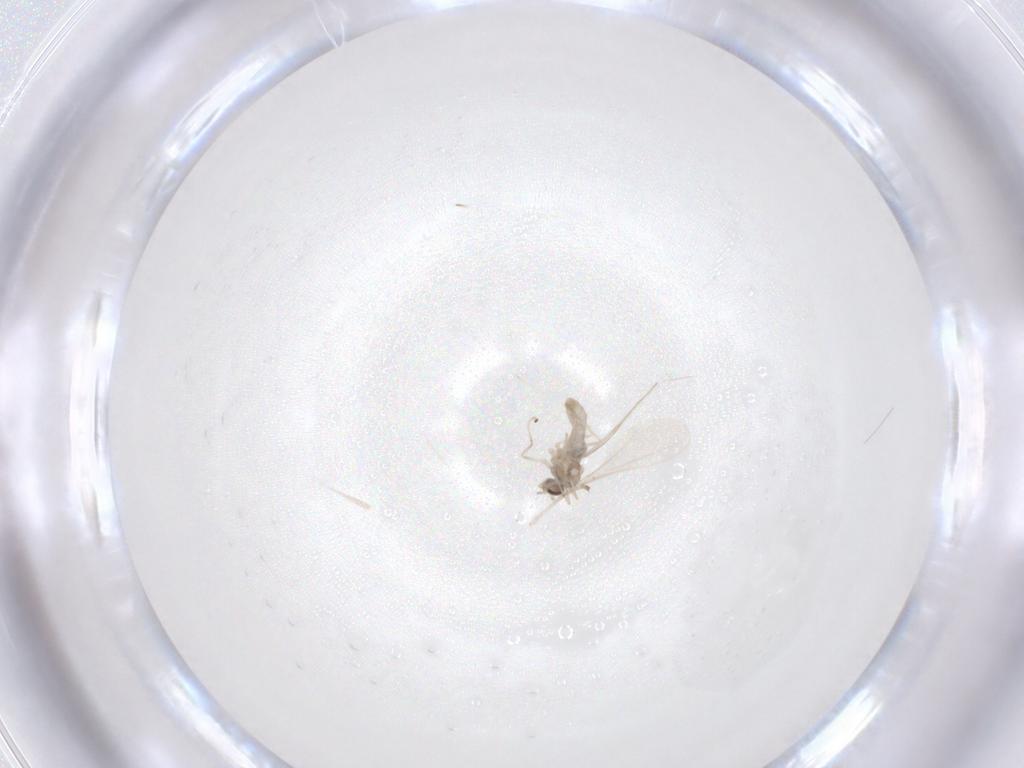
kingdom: Animalia
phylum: Arthropoda
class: Insecta
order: Diptera
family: Cecidomyiidae
